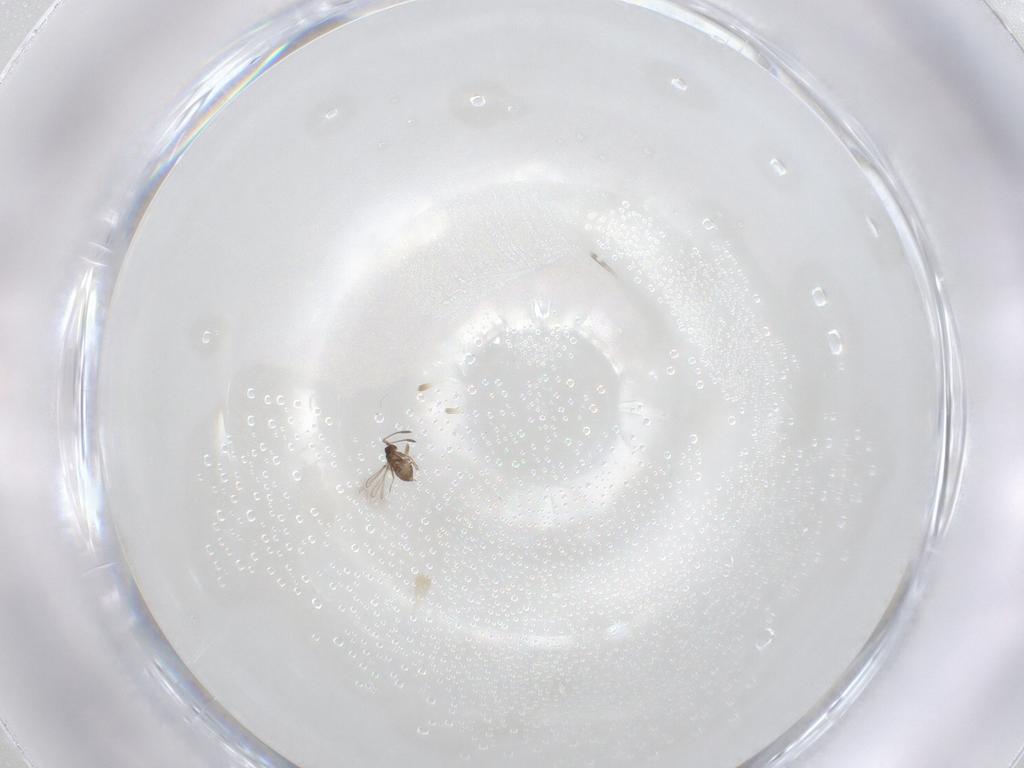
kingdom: Animalia
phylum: Arthropoda
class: Insecta
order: Hymenoptera
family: Mymaridae
